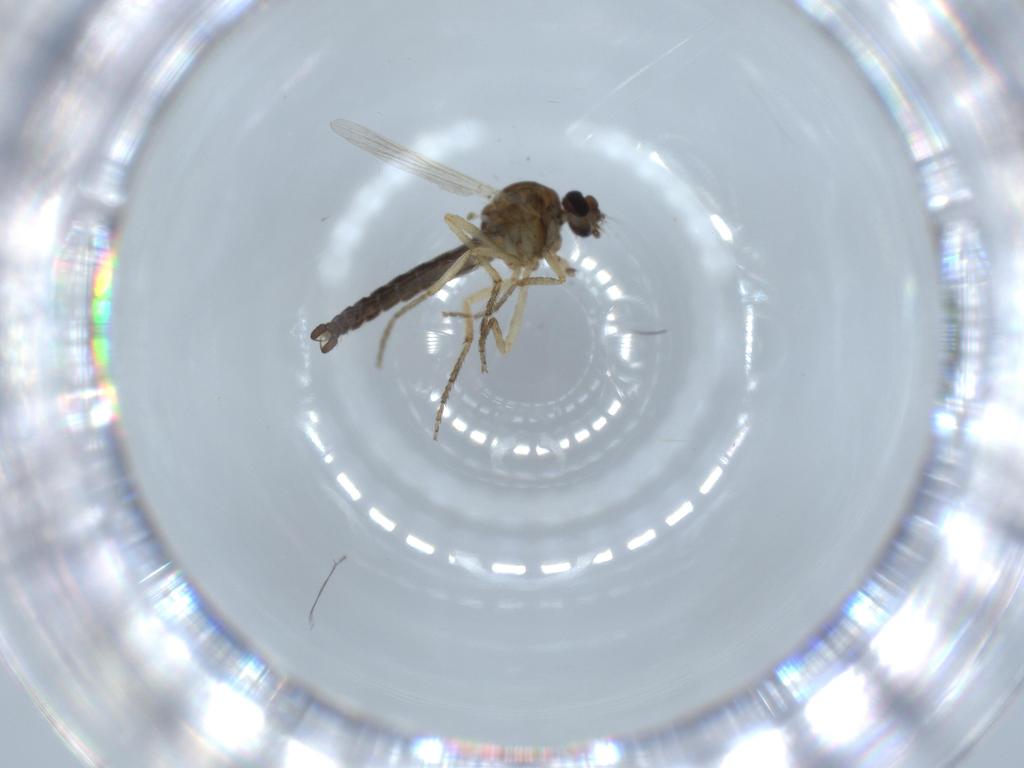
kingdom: Animalia
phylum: Arthropoda
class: Insecta
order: Diptera
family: Ceratopogonidae
